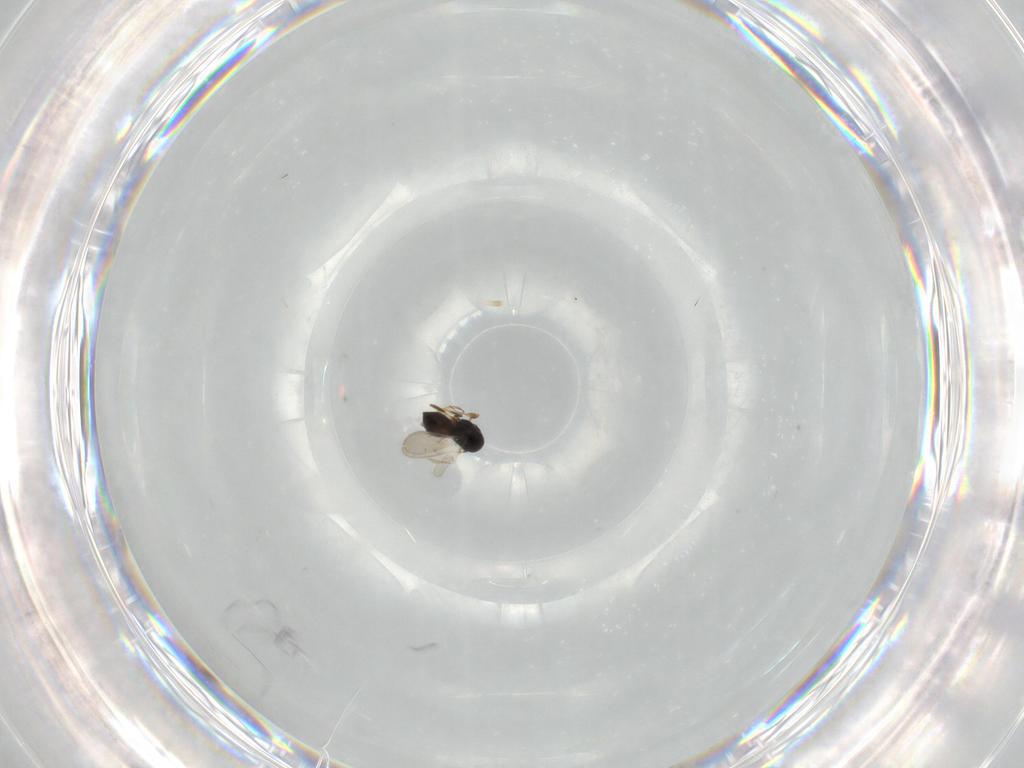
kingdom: Animalia
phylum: Arthropoda
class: Insecta
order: Hymenoptera
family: Scelionidae
